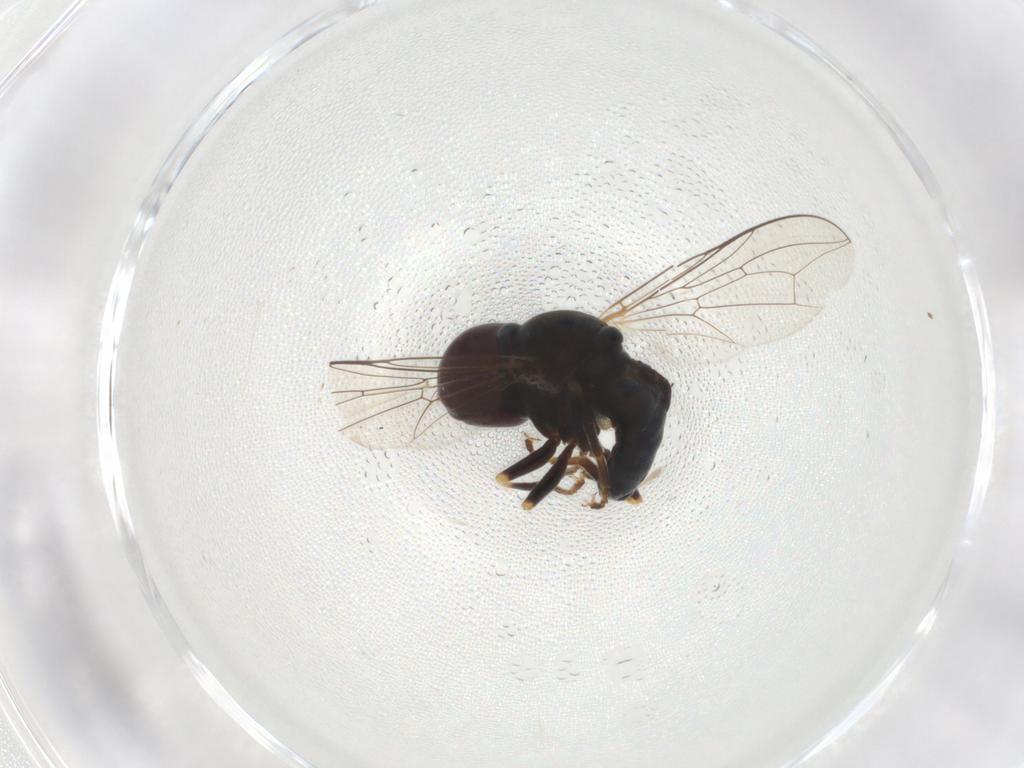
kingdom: Animalia
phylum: Arthropoda
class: Insecta
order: Diptera
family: Pipunculidae
